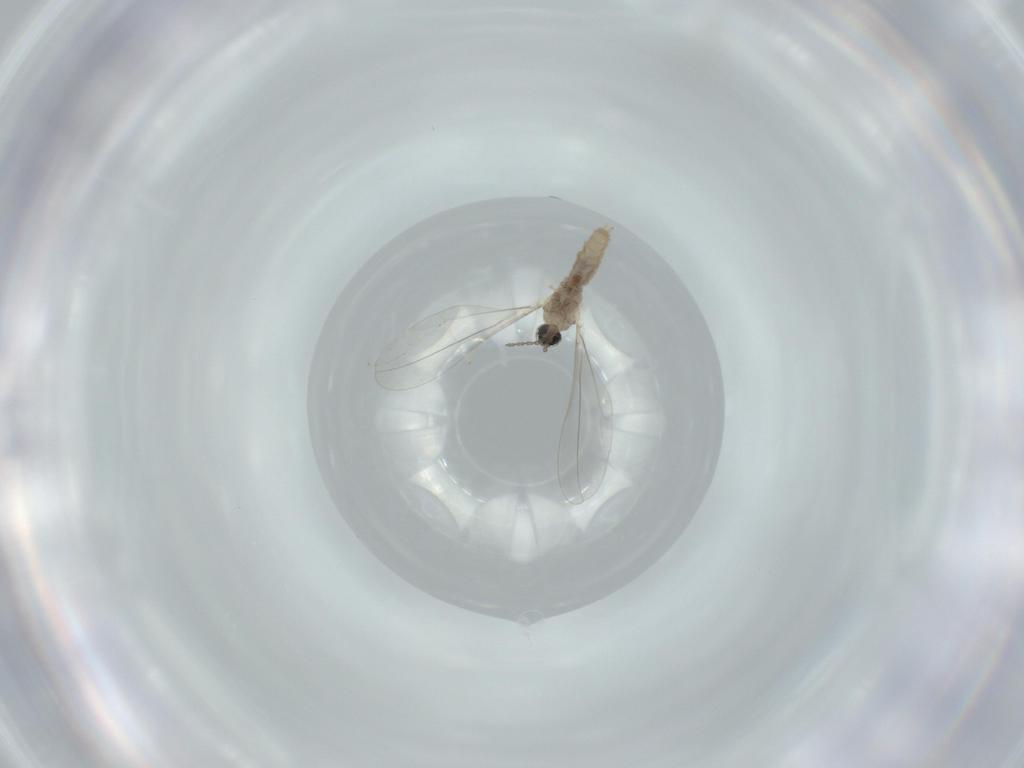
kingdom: Animalia
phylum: Arthropoda
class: Insecta
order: Diptera
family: Cecidomyiidae
